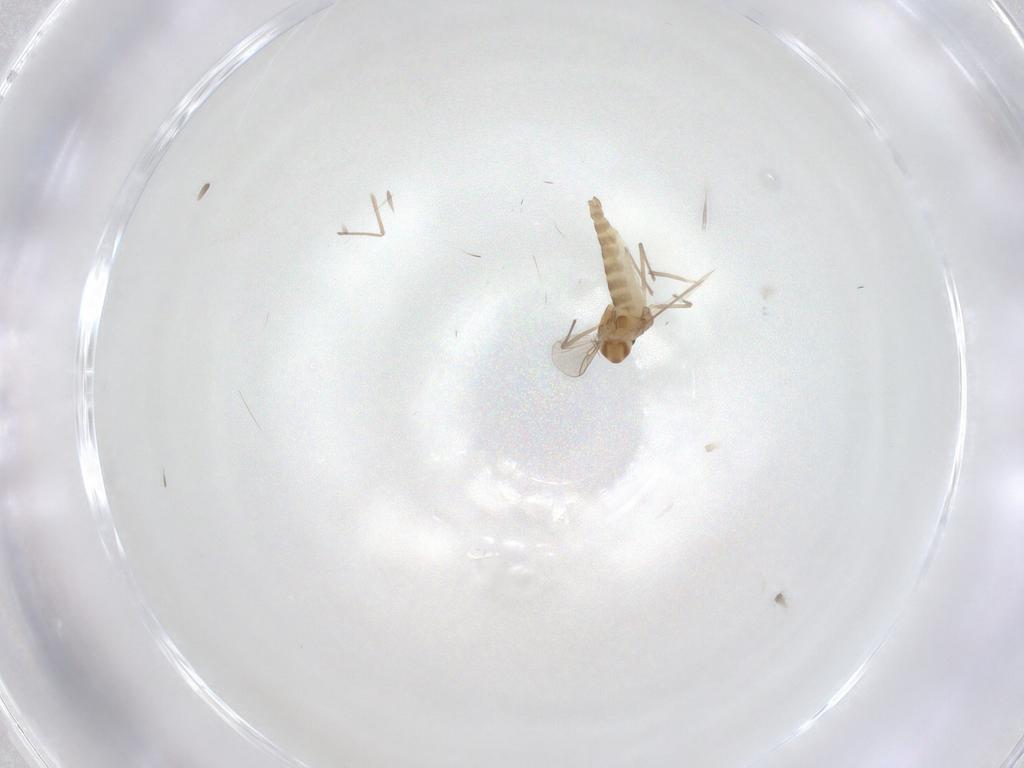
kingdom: Animalia
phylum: Arthropoda
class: Insecta
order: Diptera
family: Chironomidae
